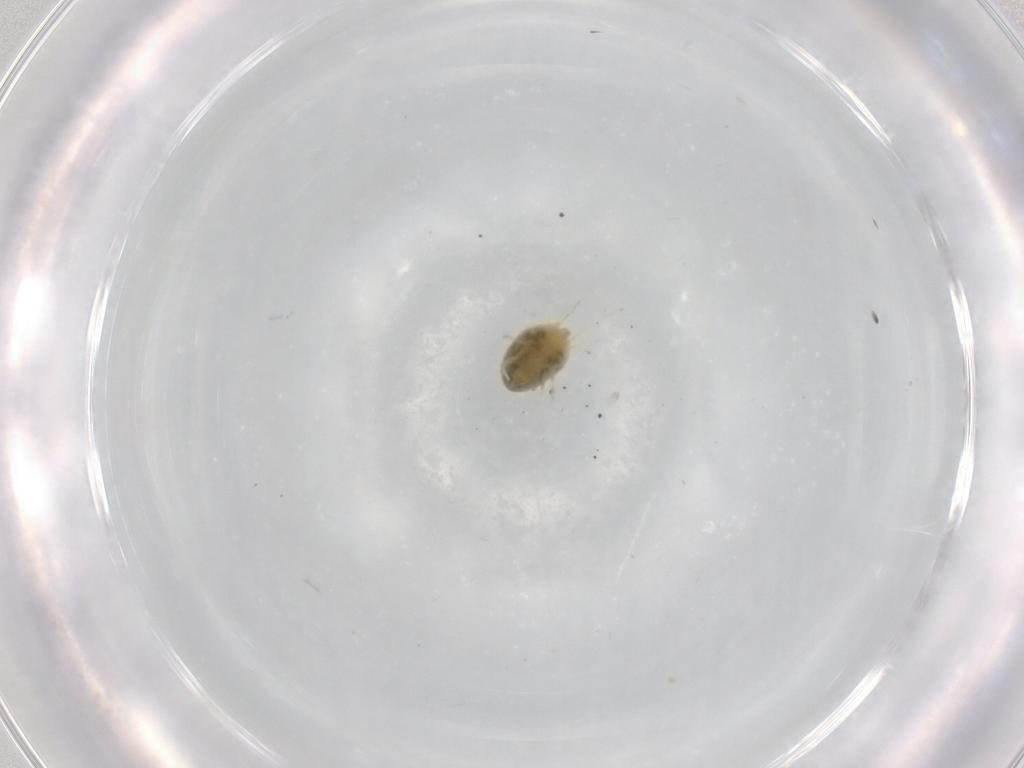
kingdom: Animalia
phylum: Arthropoda
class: Arachnida
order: Trombidiformes
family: Tetranychidae
